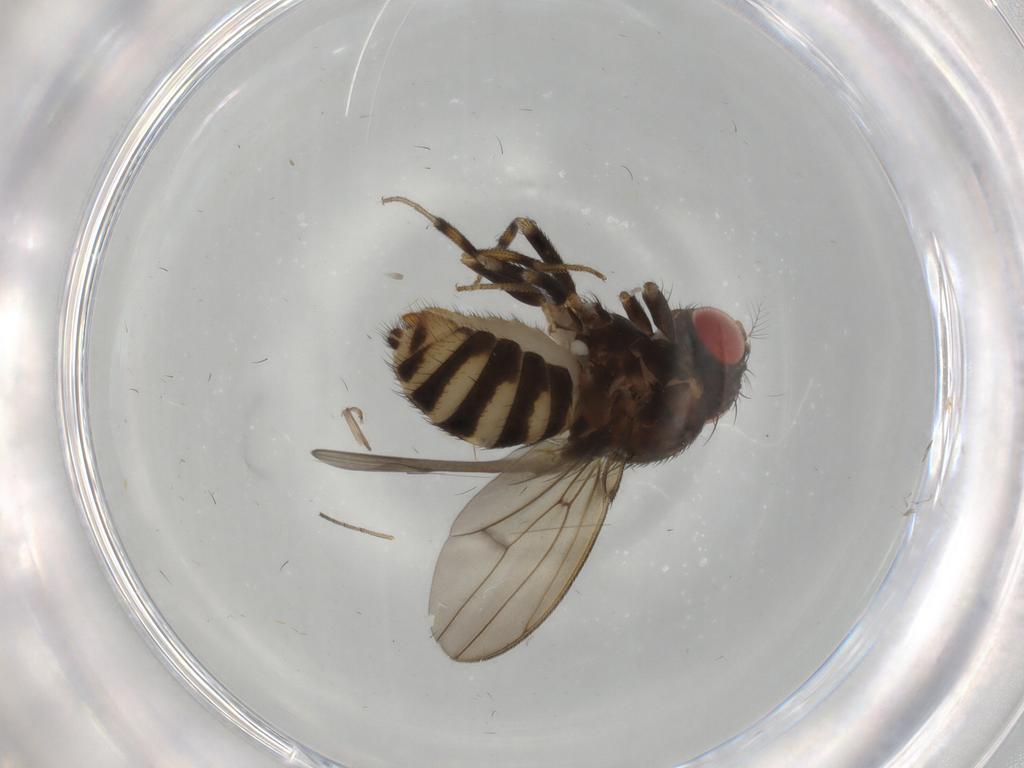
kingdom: Animalia
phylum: Arthropoda
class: Insecta
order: Diptera
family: Drosophilidae
